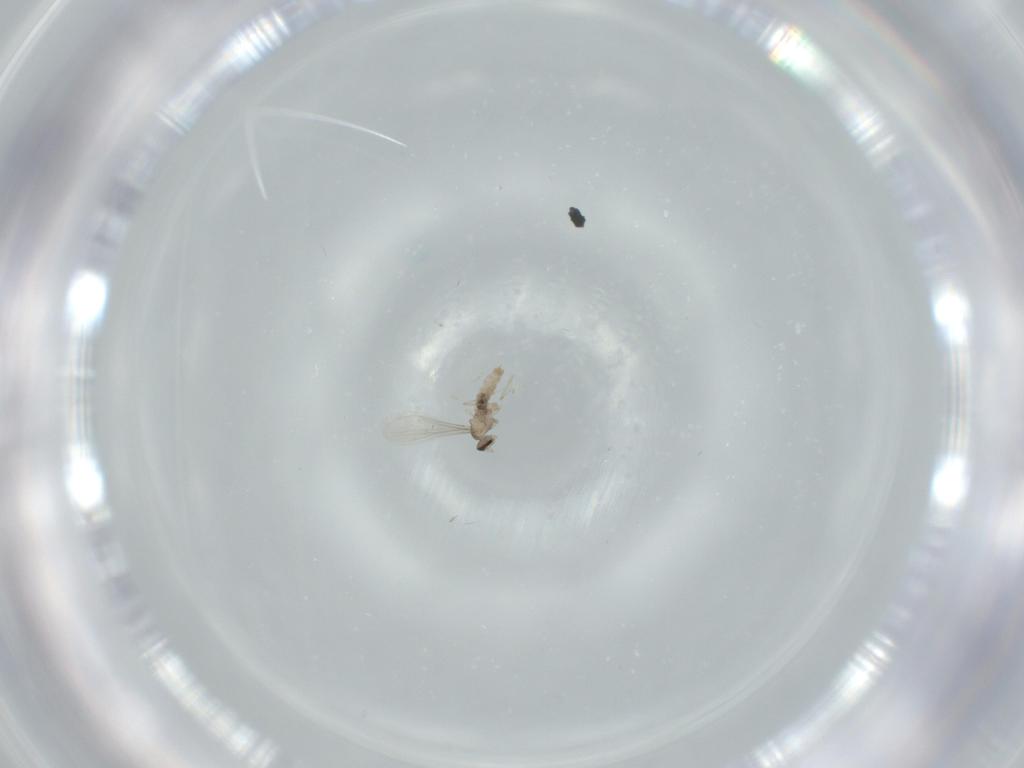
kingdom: Animalia
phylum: Arthropoda
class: Insecta
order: Diptera
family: Cecidomyiidae
